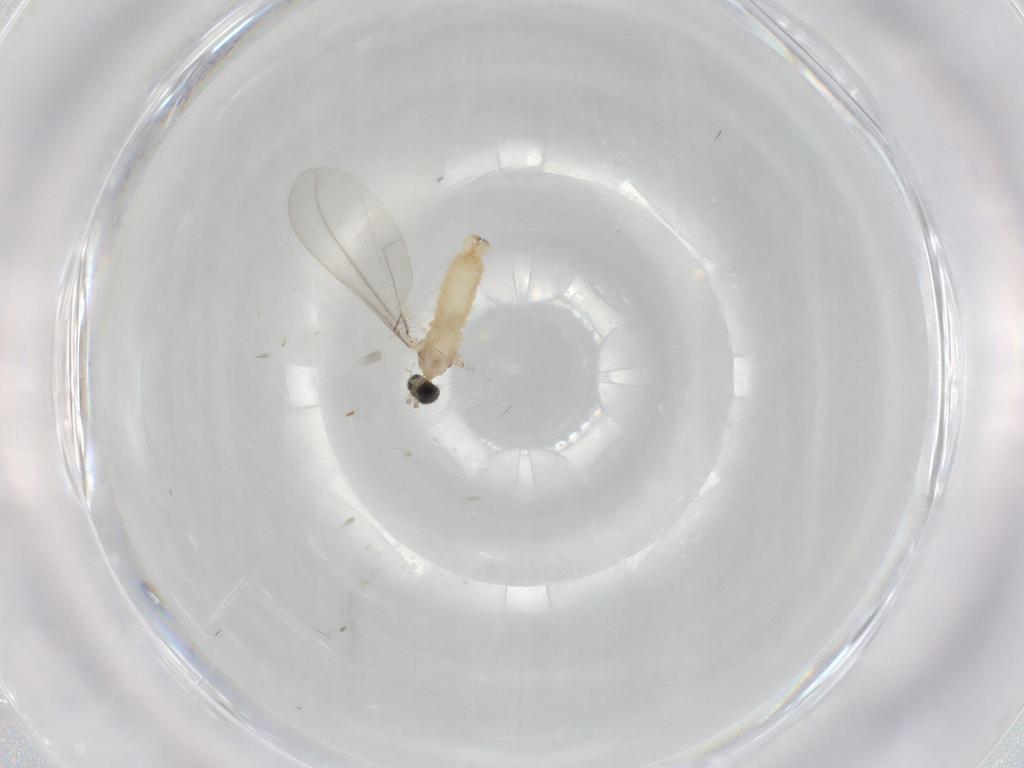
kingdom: Animalia
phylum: Arthropoda
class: Insecta
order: Diptera
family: Cecidomyiidae
